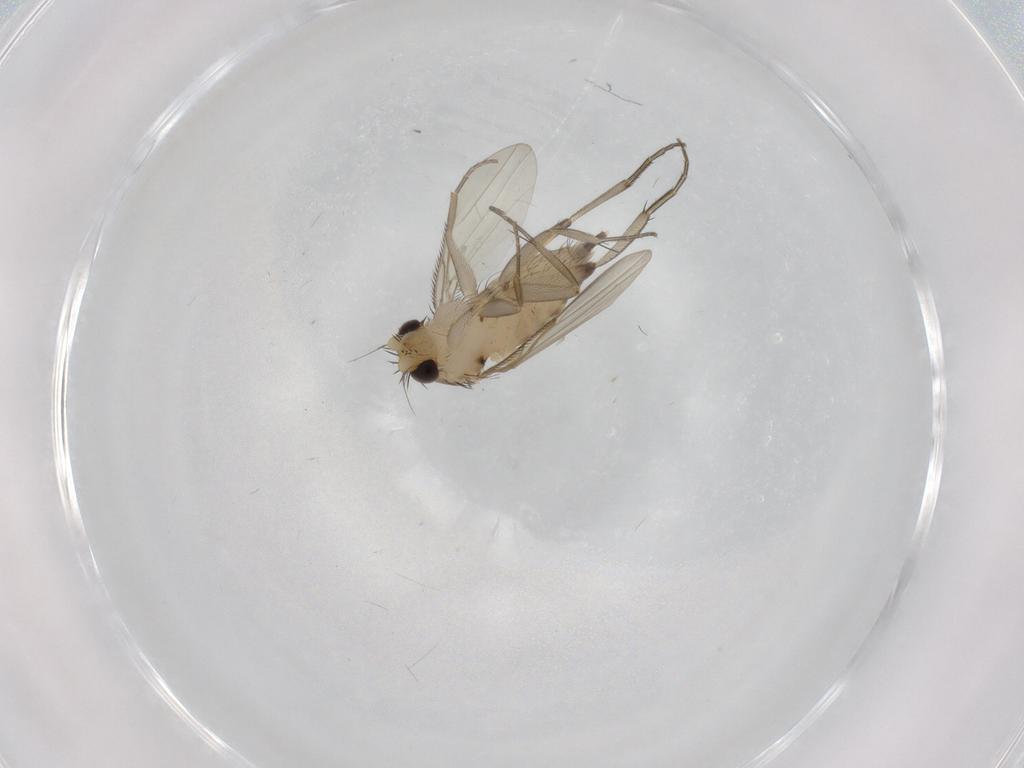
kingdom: Animalia
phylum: Arthropoda
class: Insecta
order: Diptera
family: Phoridae
